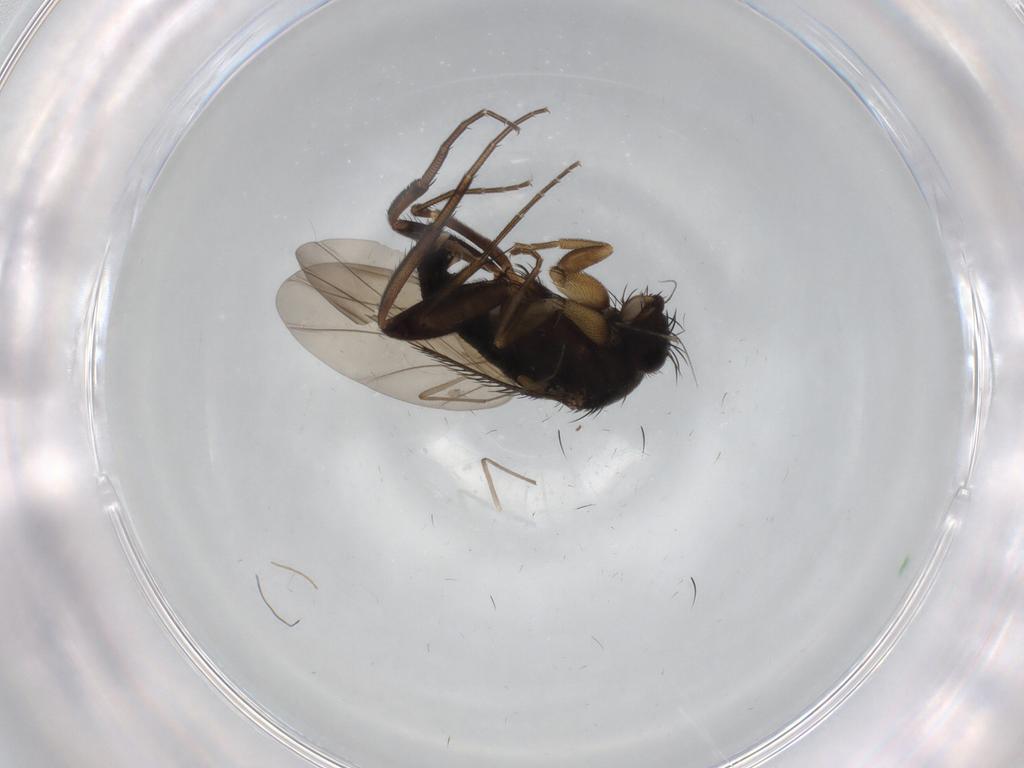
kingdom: Animalia
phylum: Arthropoda
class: Insecta
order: Diptera
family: Phoridae
